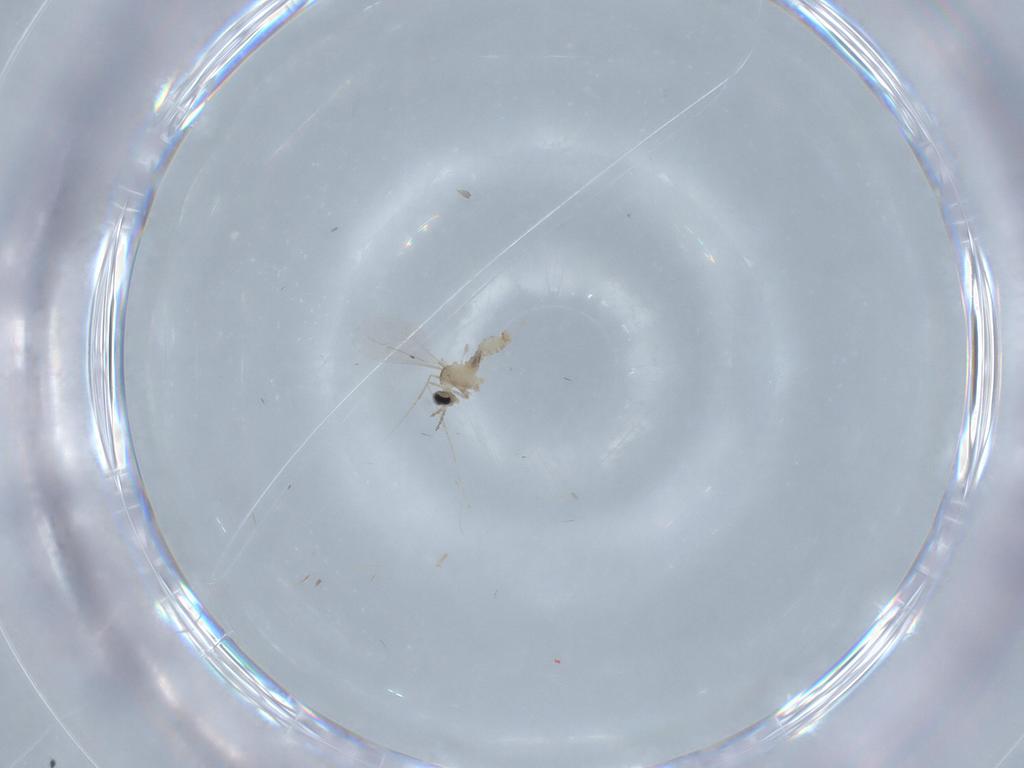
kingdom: Animalia
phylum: Arthropoda
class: Insecta
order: Diptera
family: Cecidomyiidae
